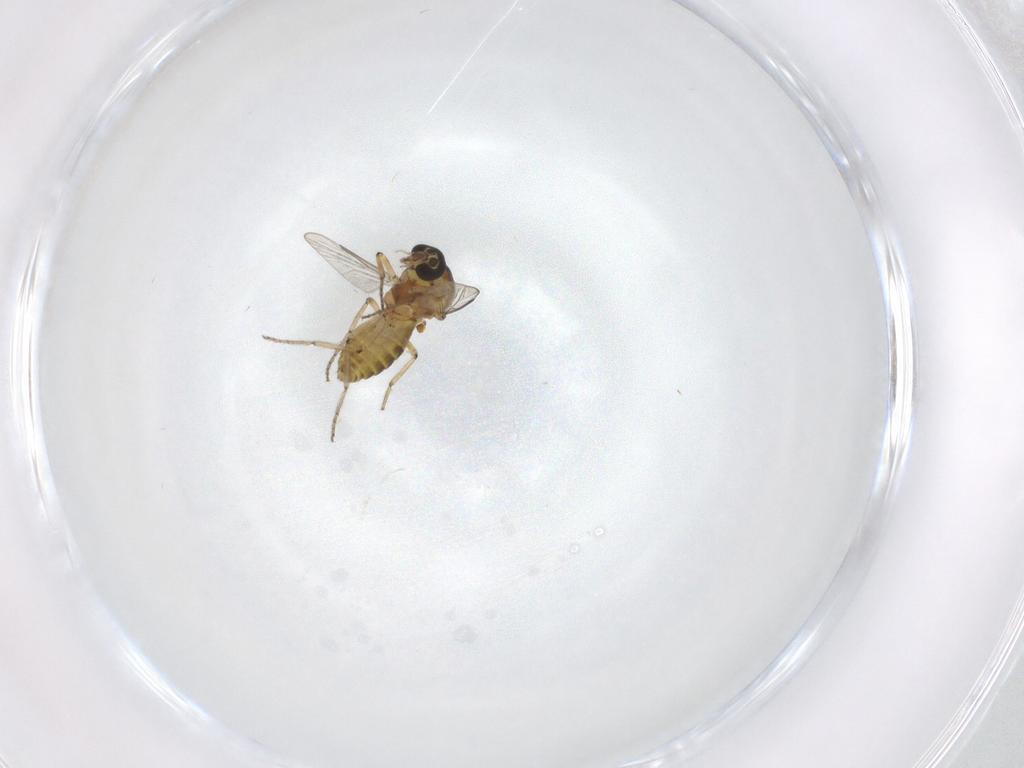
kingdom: Animalia
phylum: Arthropoda
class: Insecta
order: Diptera
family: Ceratopogonidae
